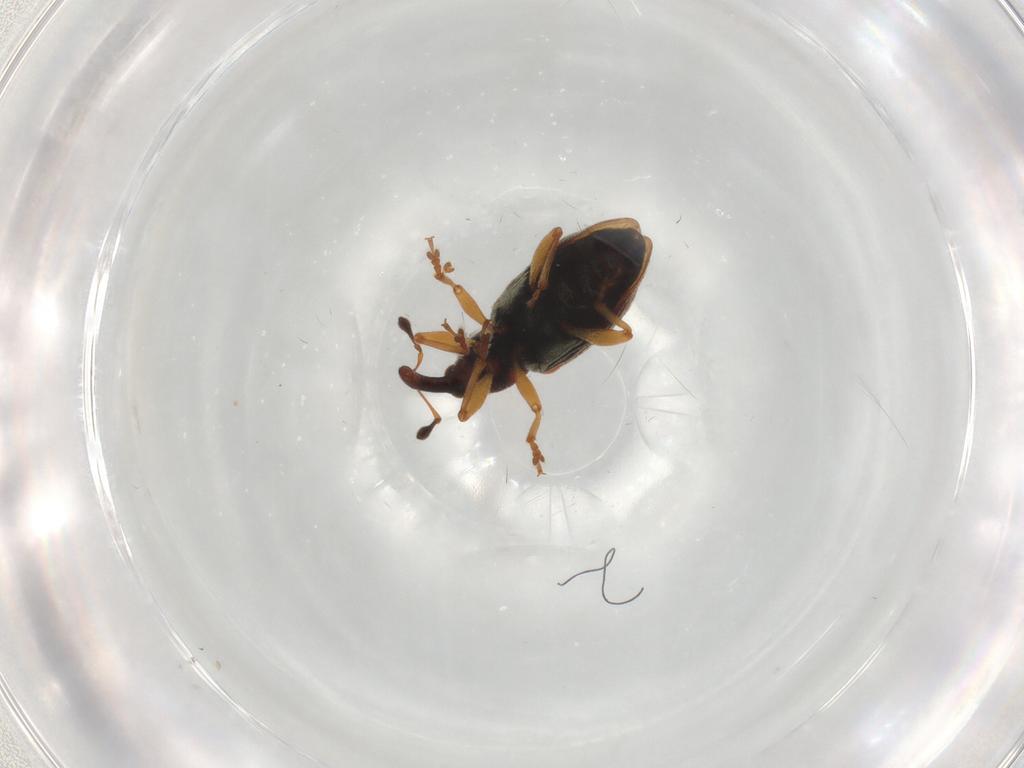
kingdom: Animalia
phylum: Arthropoda
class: Insecta
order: Coleoptera
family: Curculionidae
